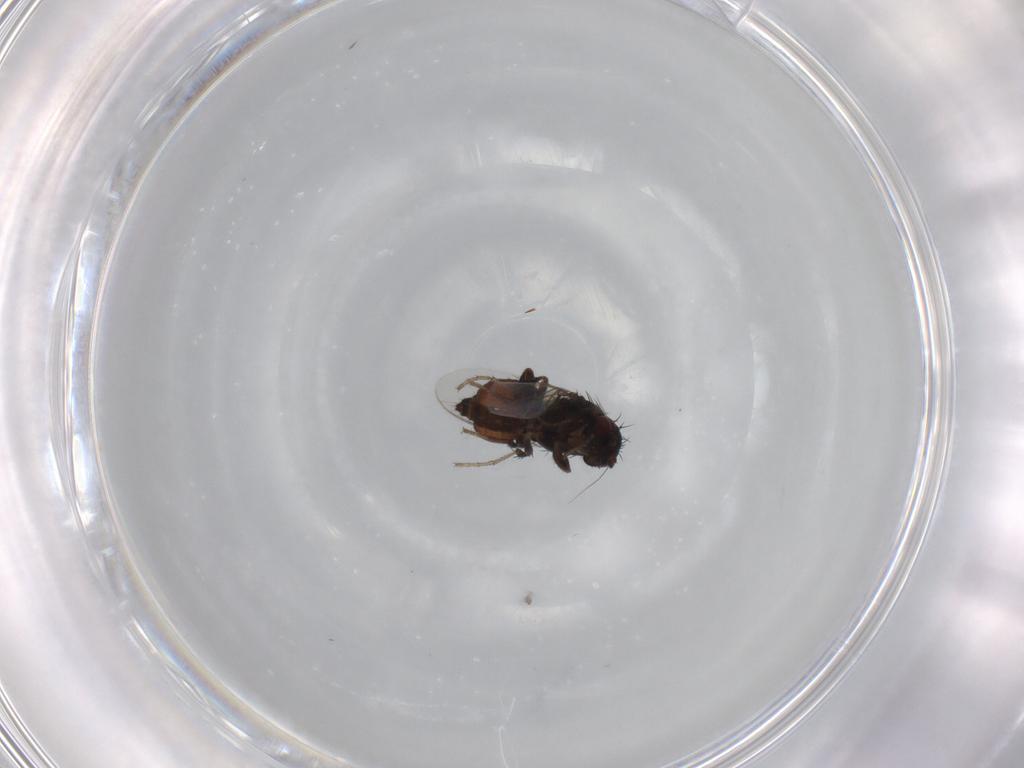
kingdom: Animalia
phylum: Arthropoda
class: Insecta
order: Diptera
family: Sphaeroceridae
